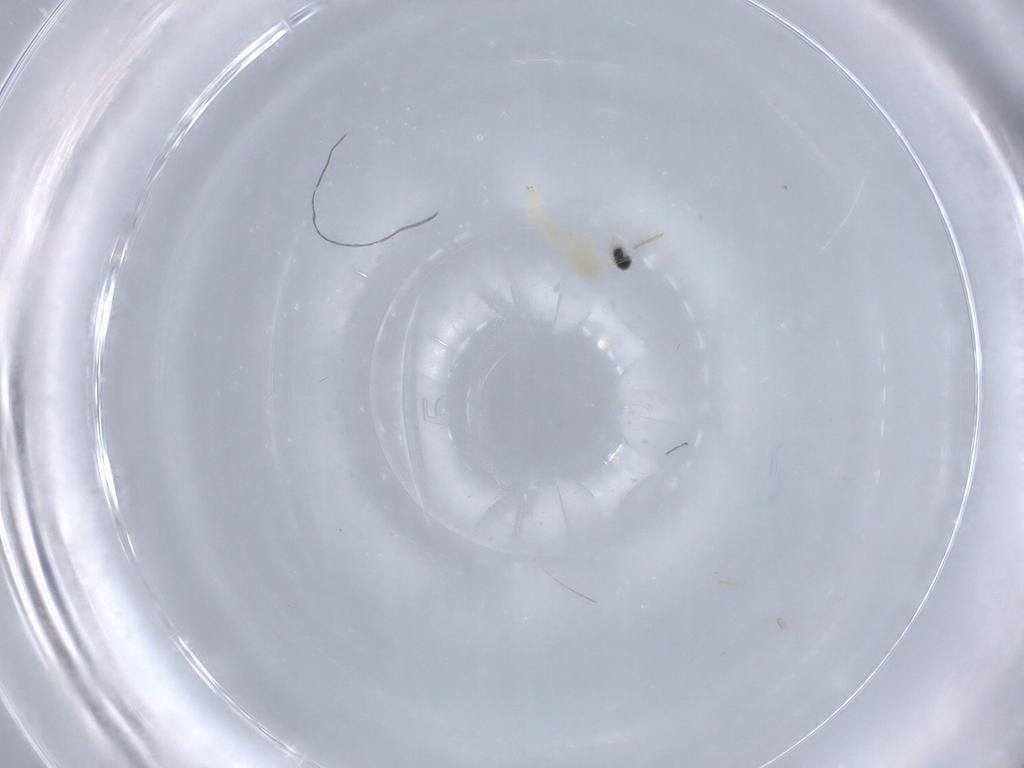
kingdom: Animalia
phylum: Arthropoda
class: Insecta
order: Diptera
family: Cecidomyiidae
